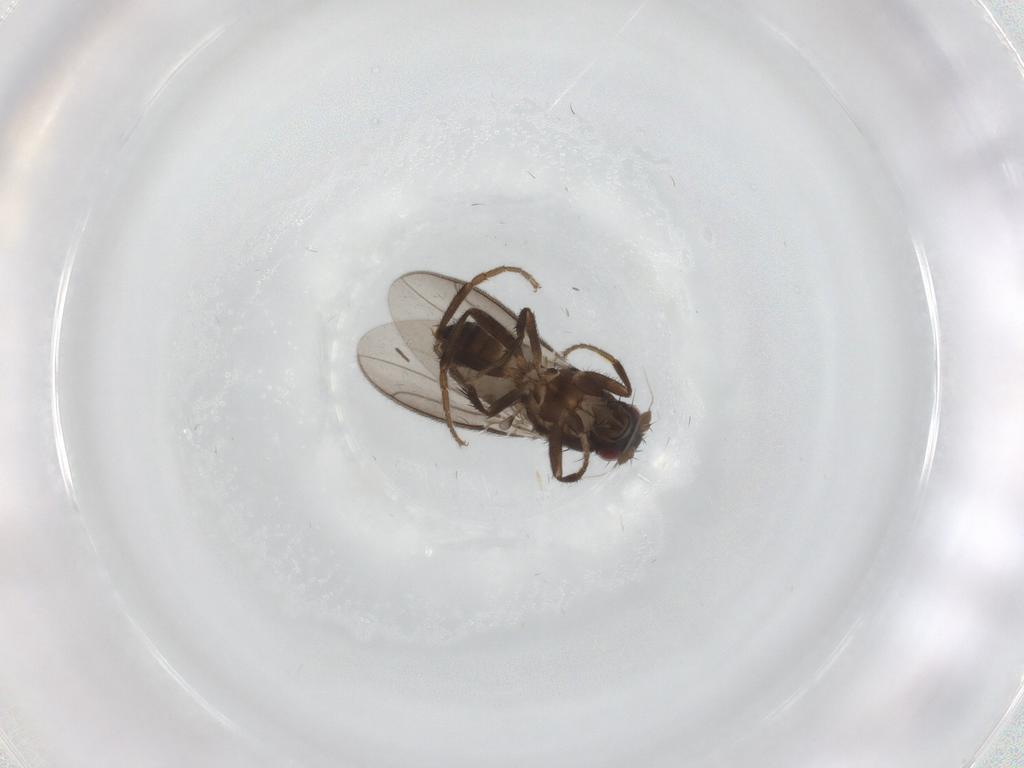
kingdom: Animalia
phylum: Arthropoda
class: Insecta
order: Diptera
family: Chironomidae
